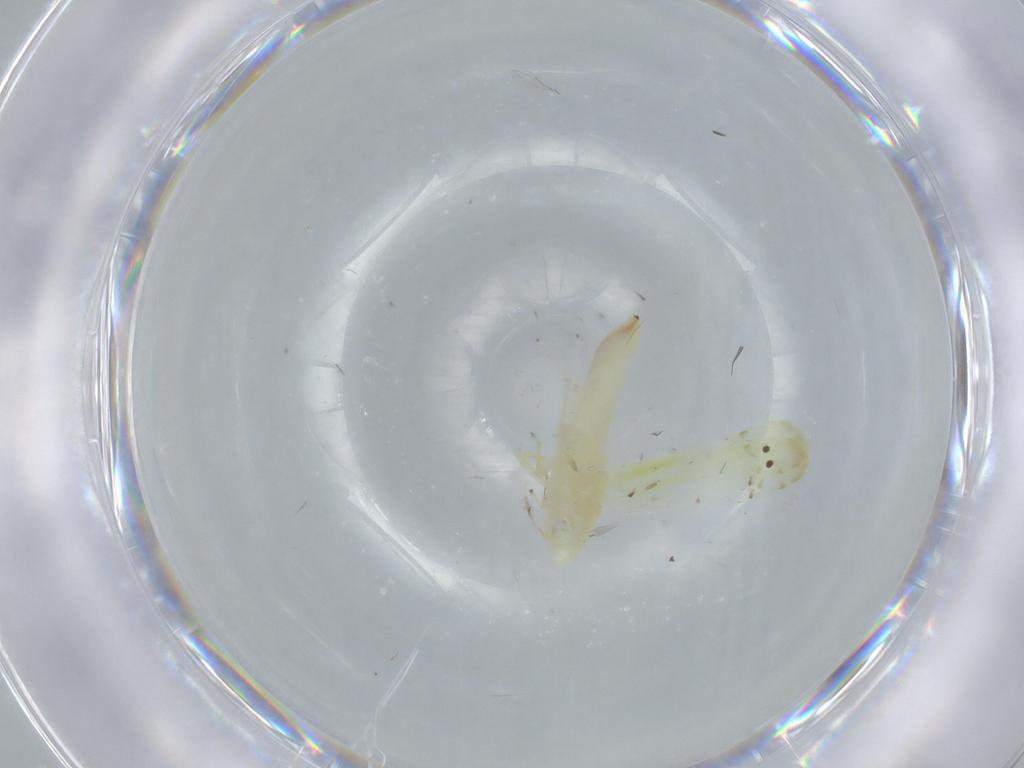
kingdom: Animalia
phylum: Arthropoda
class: Insecta
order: Hemiptera
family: Cicadellidae
